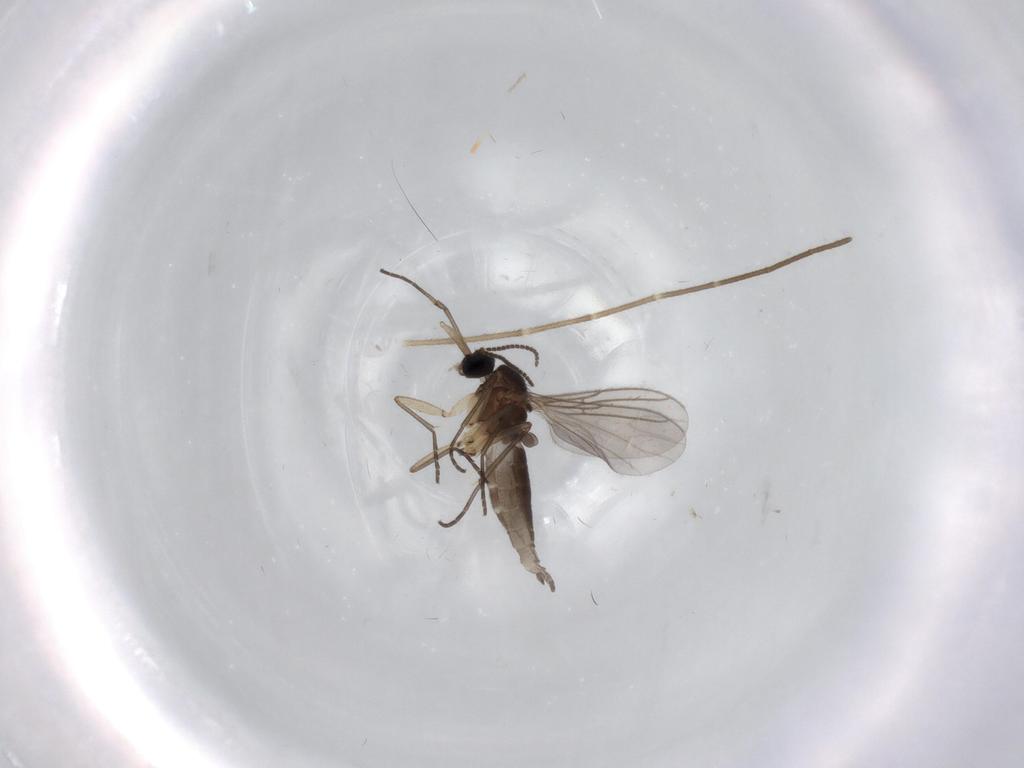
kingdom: Animalia
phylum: Arthropoda
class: Insecta
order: Diptera
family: Sciaridae
